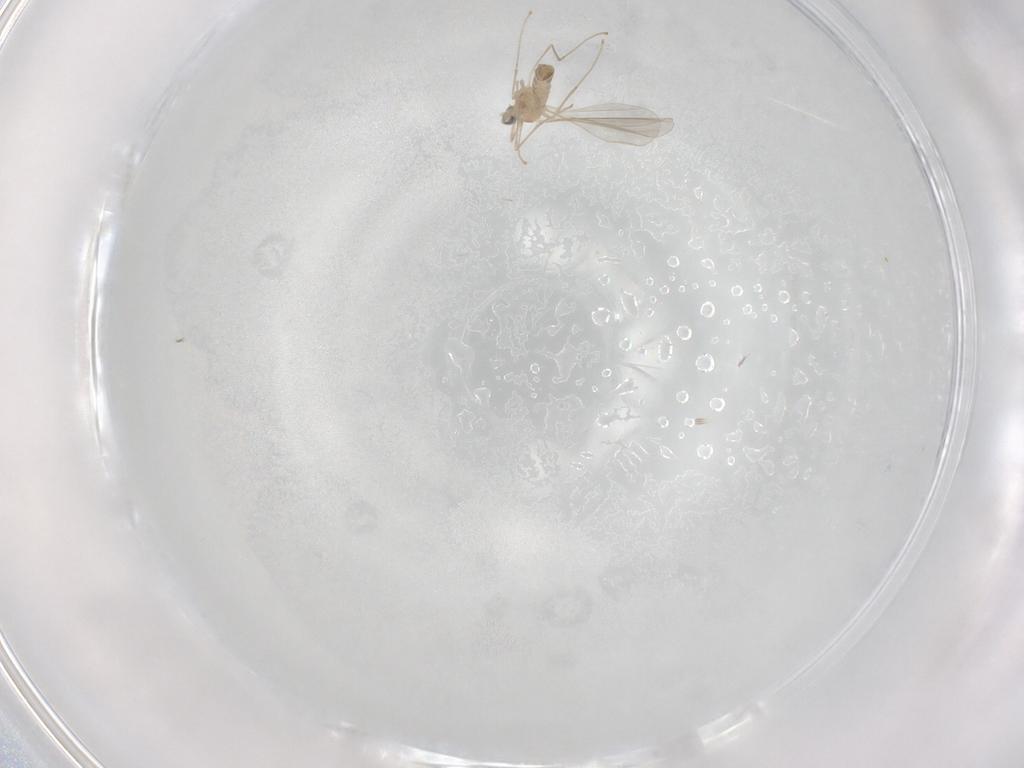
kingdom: Animalia
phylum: Arthropoda
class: Insecta
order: Diptera
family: Cecidomyiidae
